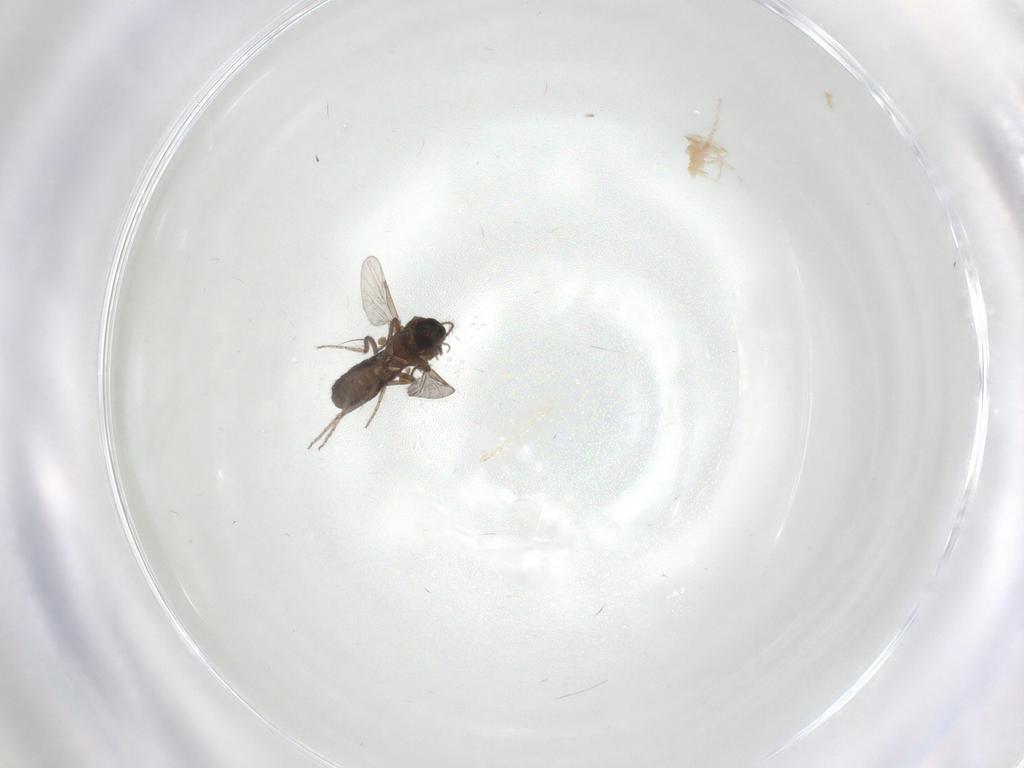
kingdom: Animalia
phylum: Arthropoda
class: Insecta
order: Diptera
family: Ceratopogonidae
